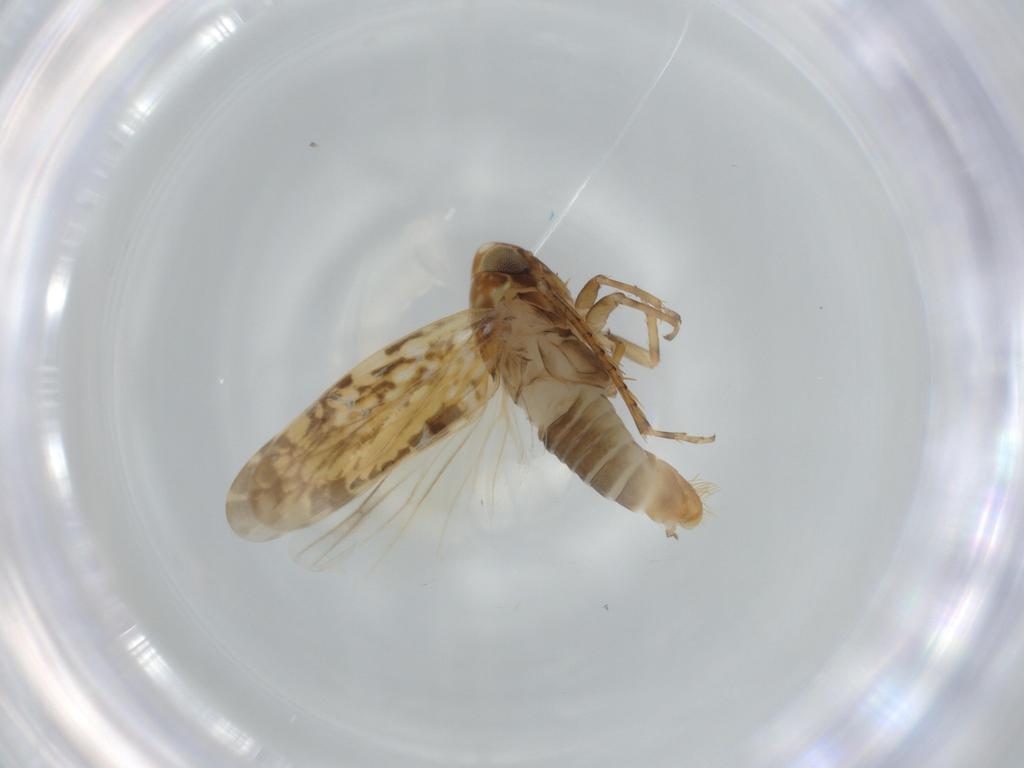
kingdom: Animalia
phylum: Arthropoda
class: Insecta
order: Hemiptera
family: Cicadellidae
